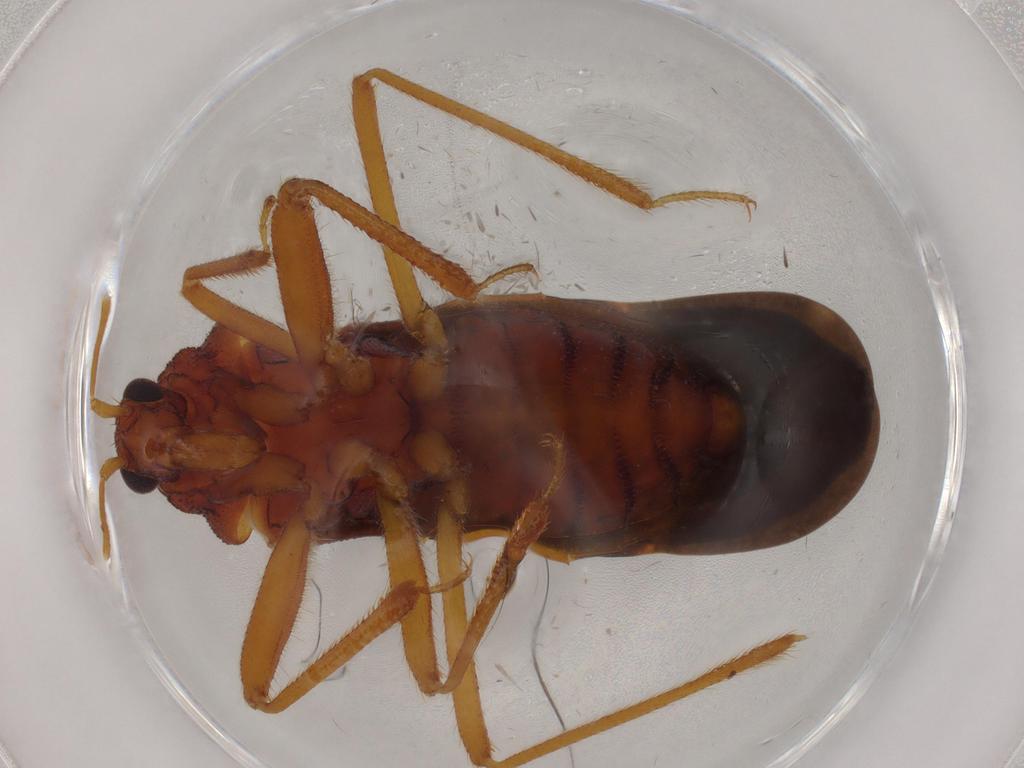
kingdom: Animalia
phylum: Arthropoda
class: Insecta
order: Hemiptera
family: Reduviidae
